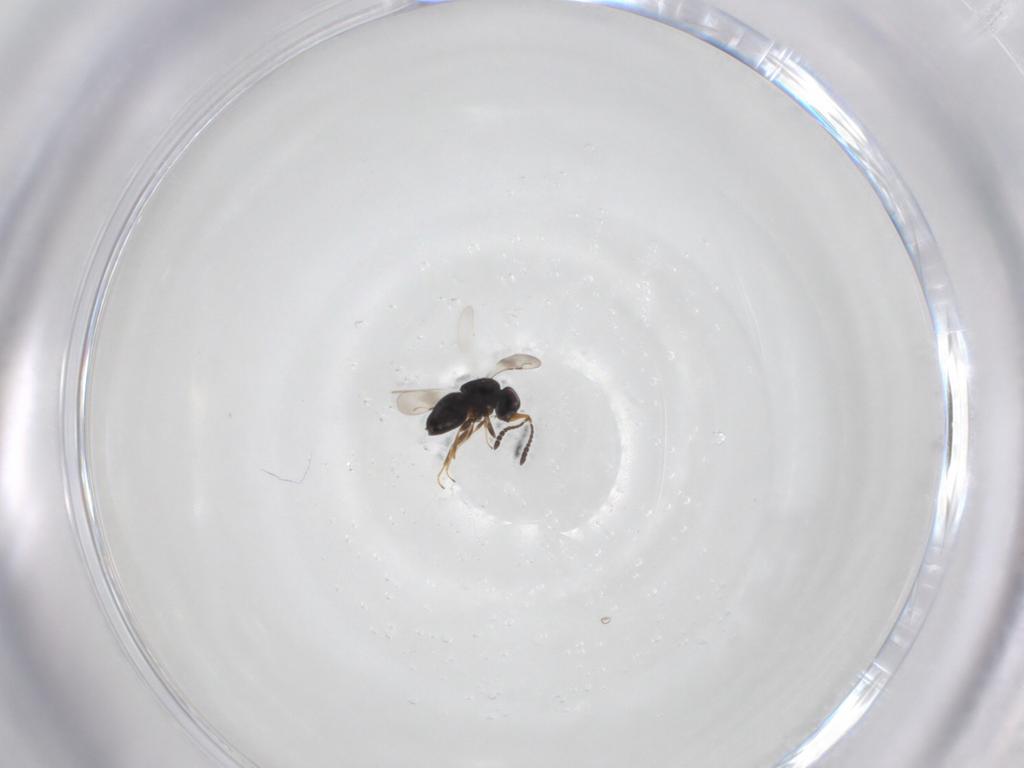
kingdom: Animalia
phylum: Arthropoda
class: Insecta
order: Hymenoptera
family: Ceraphronidae
